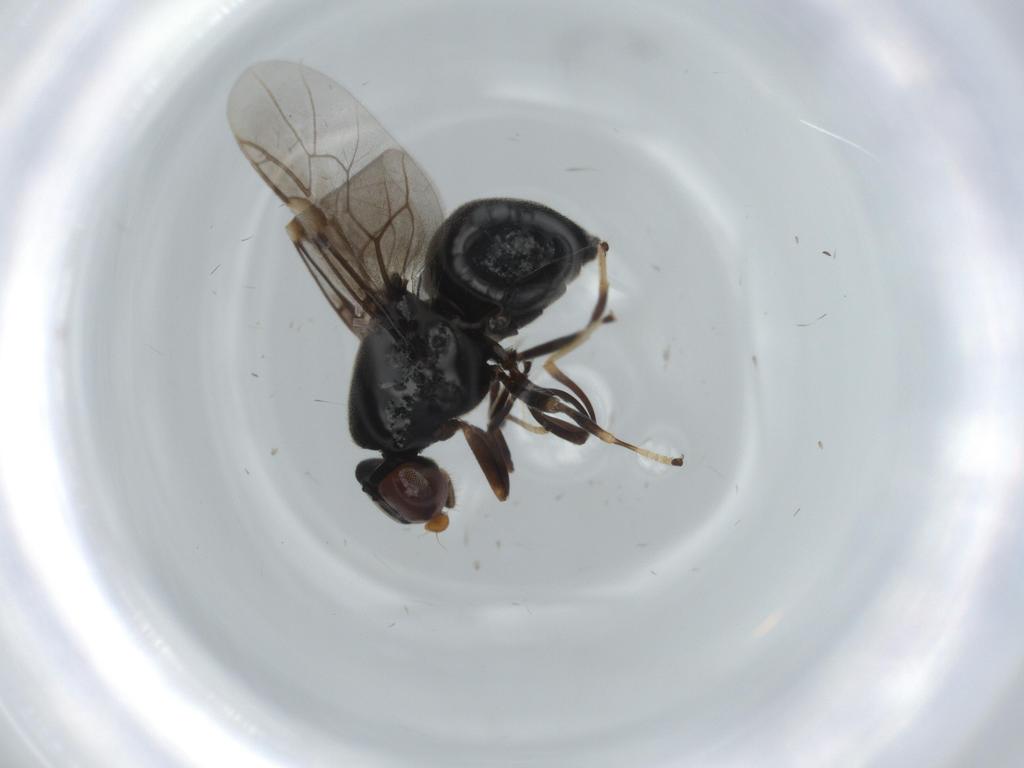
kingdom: Animalia
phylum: Arthropoda
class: Insecta
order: Diptera
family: Stratiomyidae
